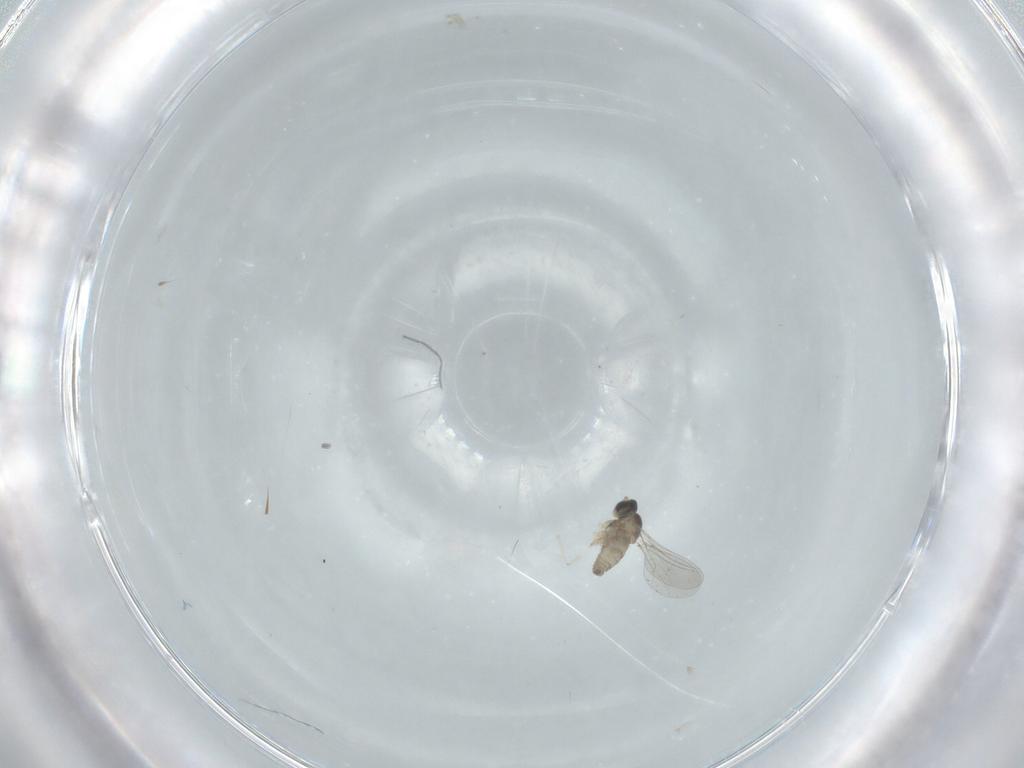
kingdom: Animalia
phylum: Arthropoda
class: Insecta
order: Diptera
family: Cecidomyiidae
